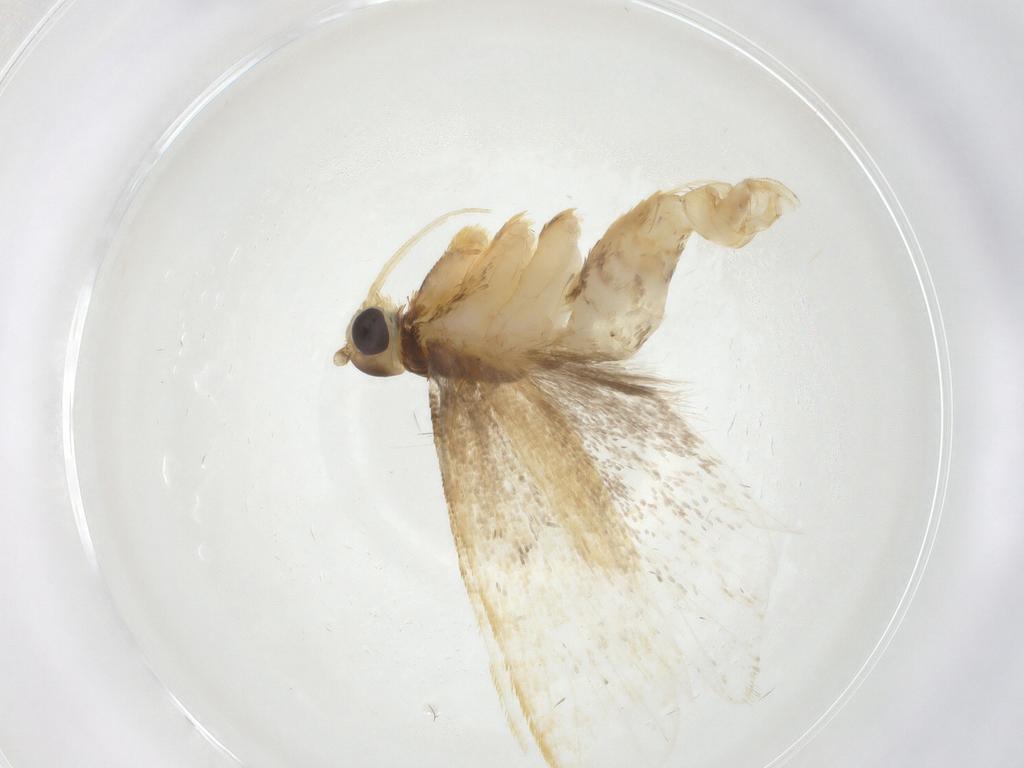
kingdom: Animalia
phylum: Arthropoda
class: Insecta
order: Lepidoptera
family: Lecithoceridae
